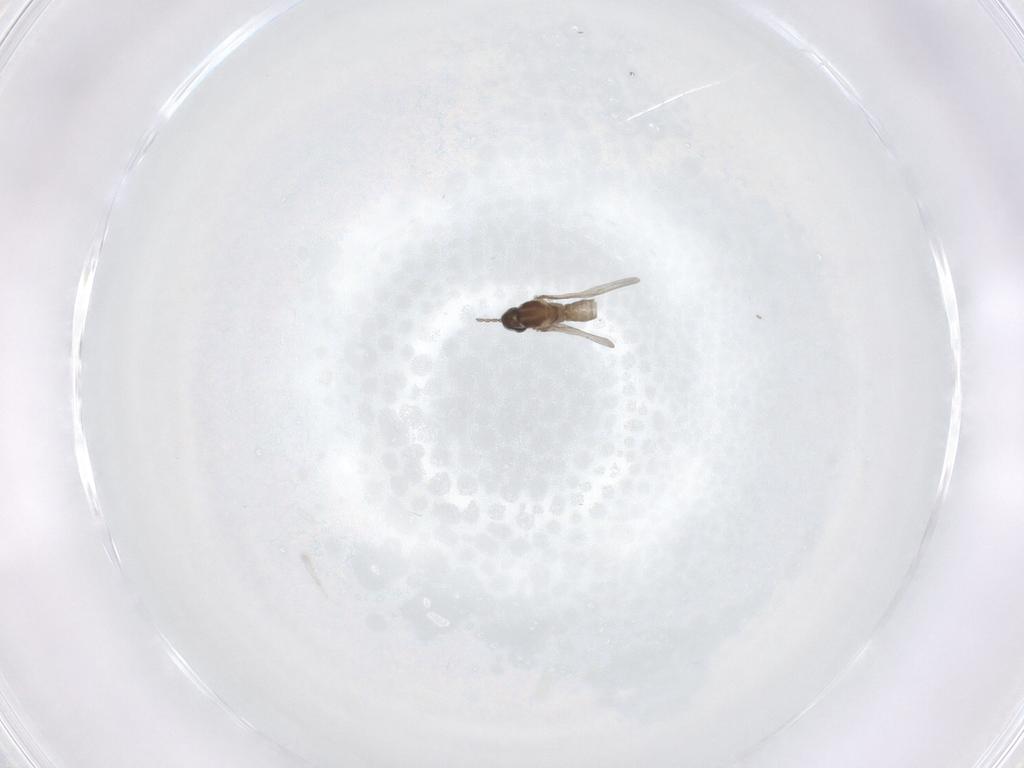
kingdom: Animalia
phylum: Arthropoda
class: Insecta
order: Diptera
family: Cecidomyiidae
